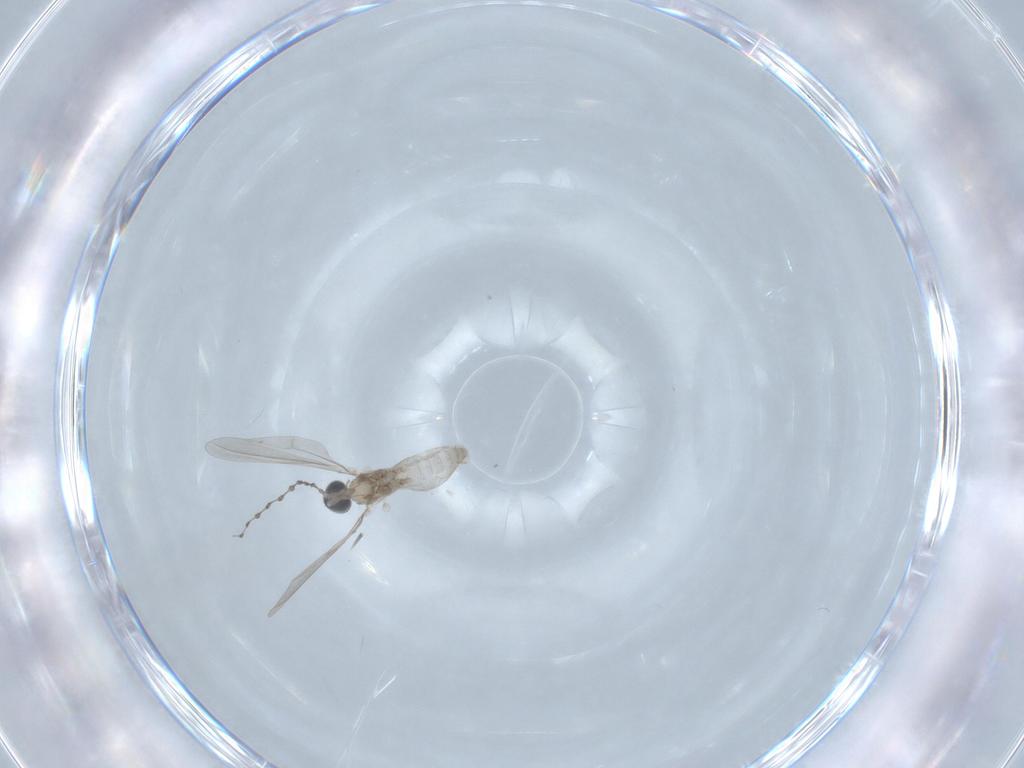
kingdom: Animalia
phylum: Arthropoda
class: Insecta
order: Diptera
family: Cecidomyiidae
